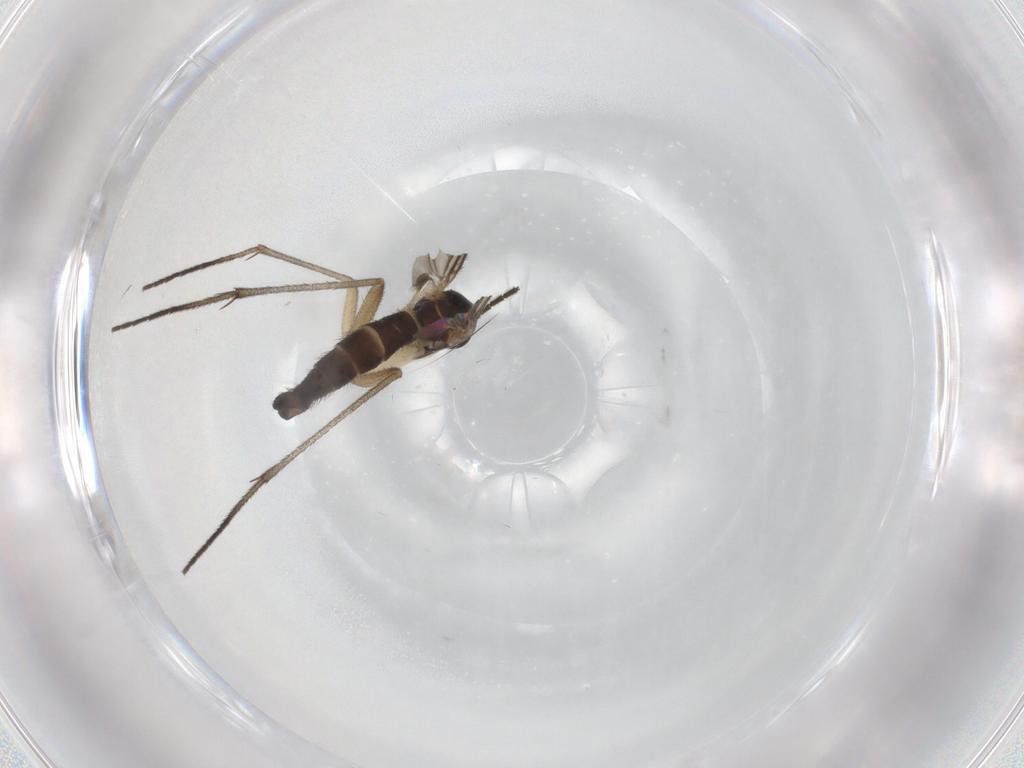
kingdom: Animalia
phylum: Arthropoda
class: Insecta
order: Diptera
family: Sciaridae
